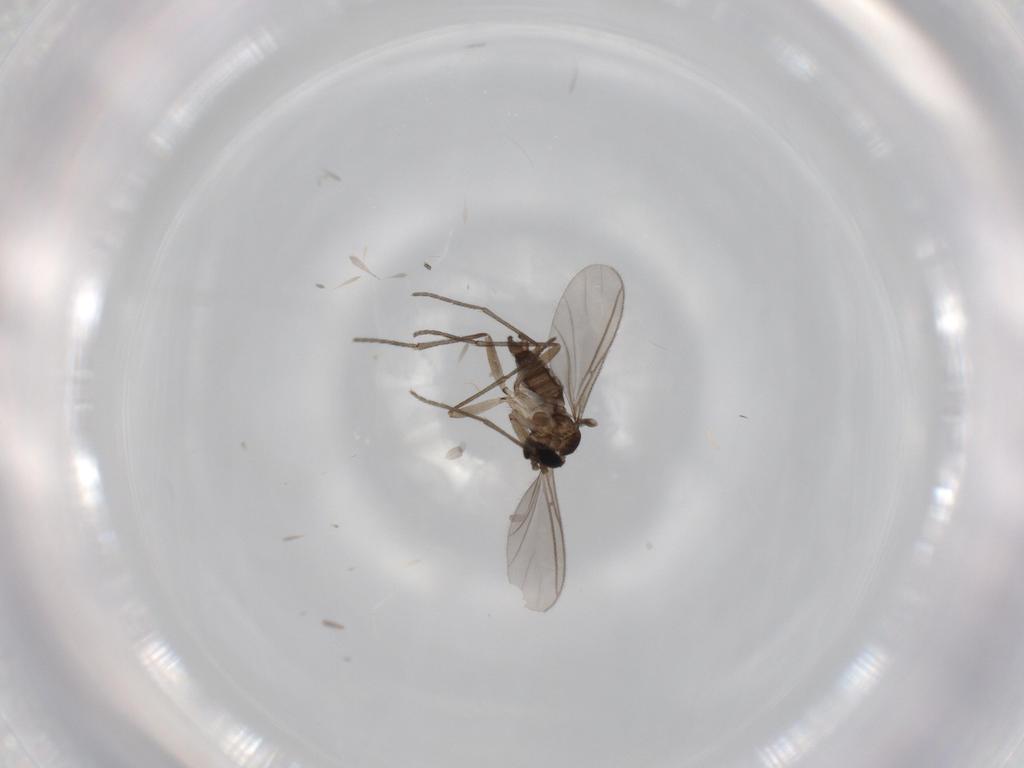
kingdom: Animalia
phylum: Arthropoda
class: Insecta
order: Diptera
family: Sciaridae
